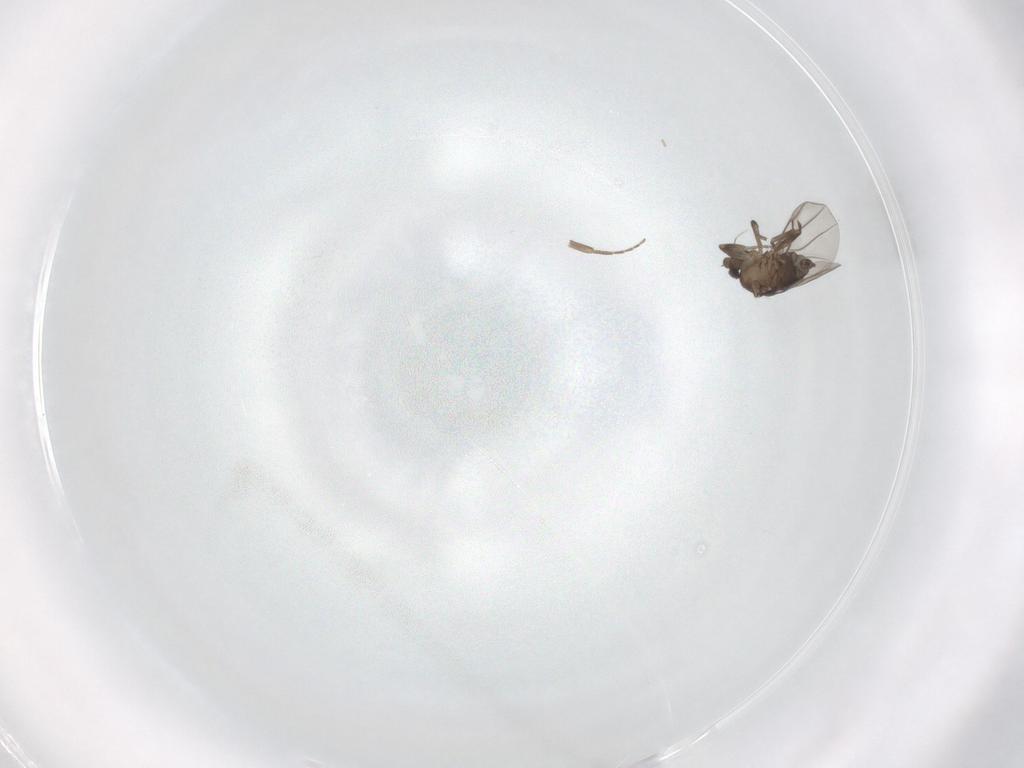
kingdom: Animalia
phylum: Arthropoda
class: Insecta
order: Diptera
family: Phoridae
